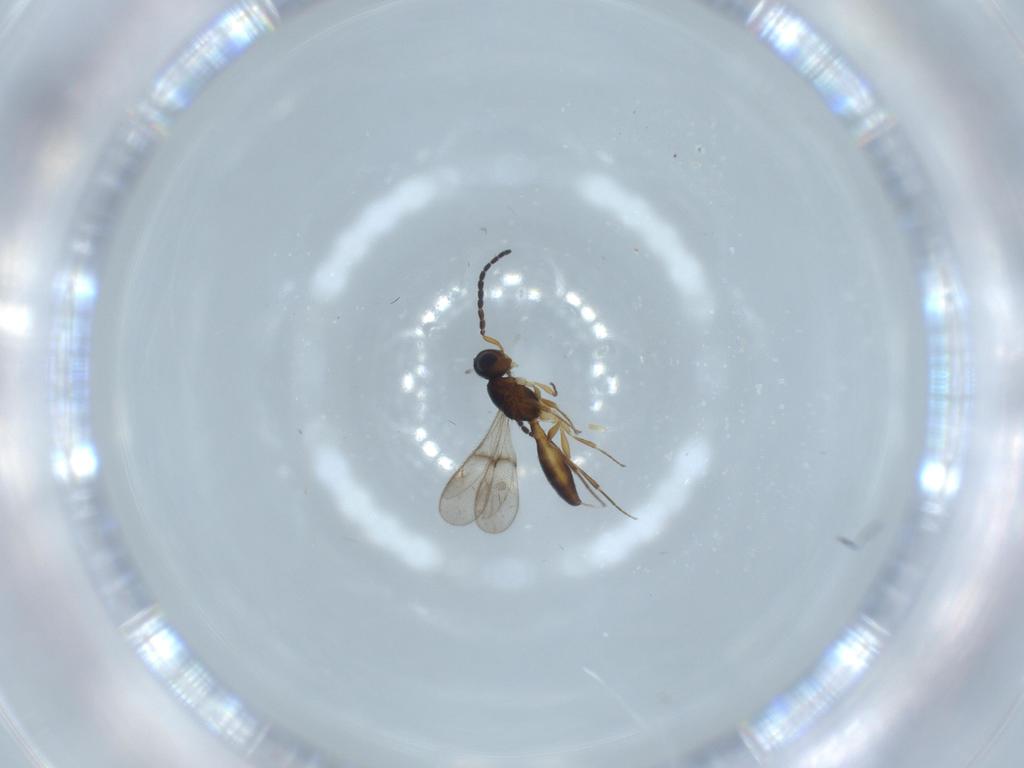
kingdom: Animalia
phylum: Arthropoda
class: Insecta
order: Hymenoptera
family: Scelionidae
